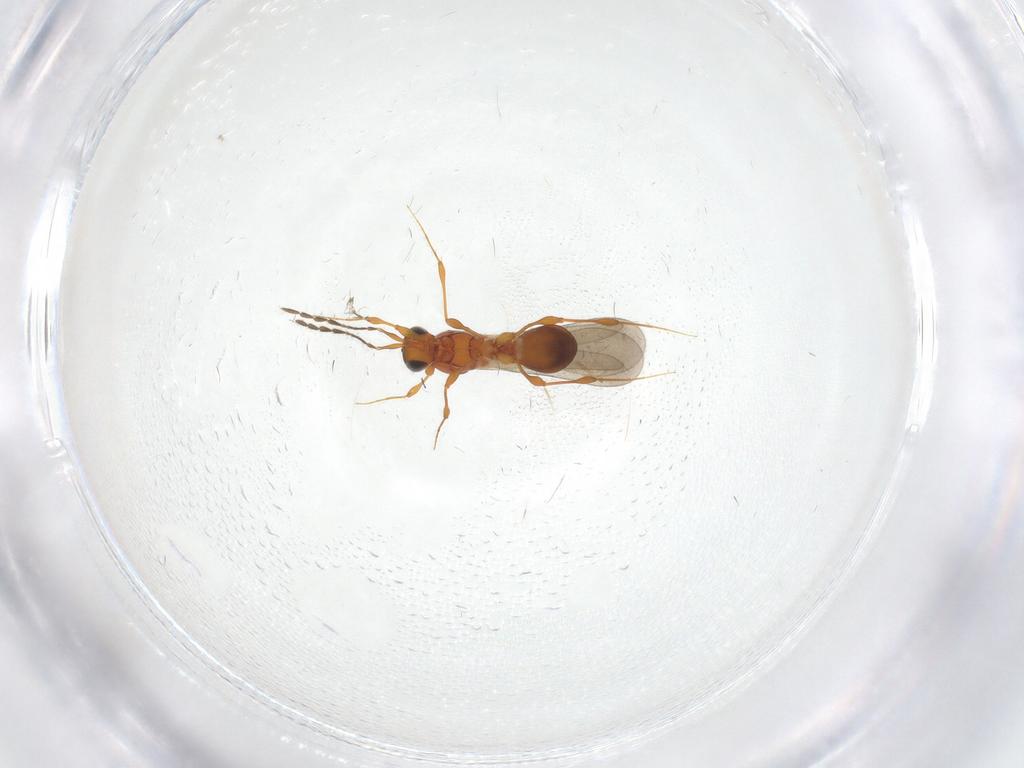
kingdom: Animalia
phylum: Arthropoda
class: Insecta
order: Hymenoptera
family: Platygastridae
